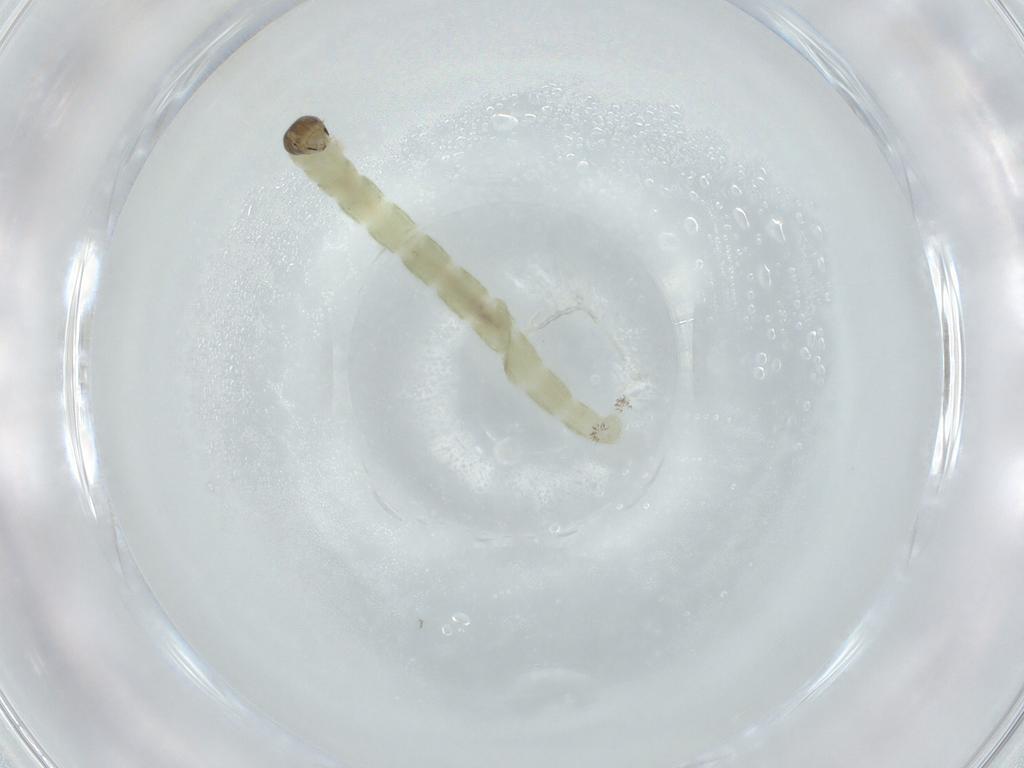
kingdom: Animalia
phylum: Arthropoda
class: Insecta
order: Diptera
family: Chironomidae
